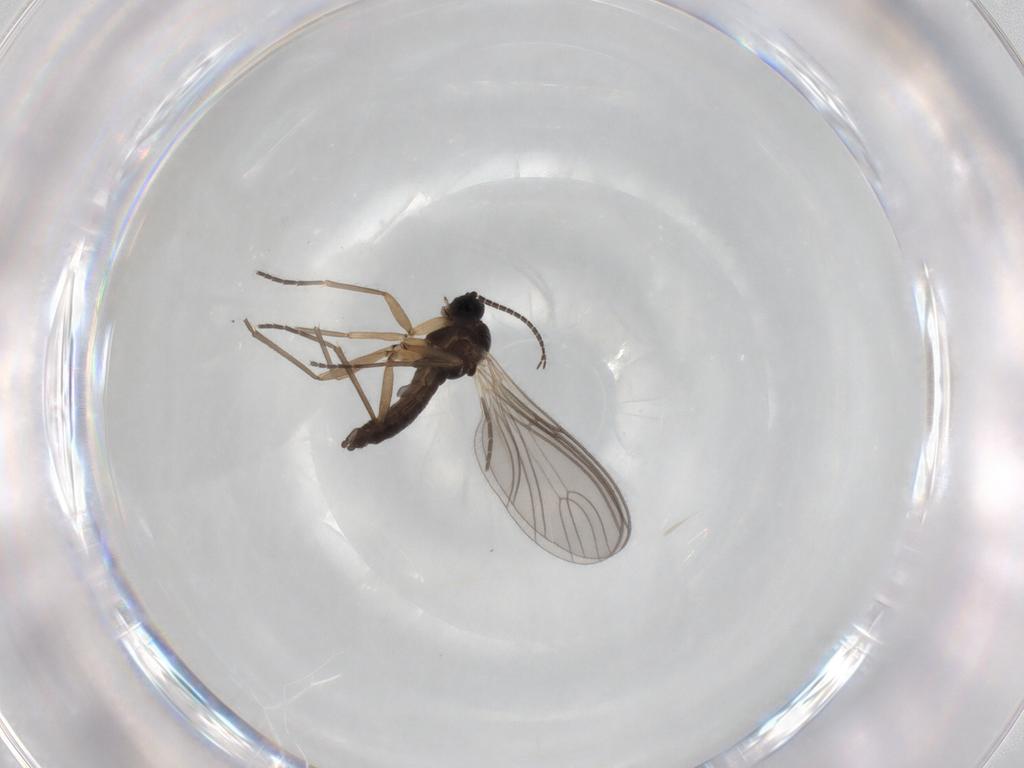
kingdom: Animalia
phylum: Arthropoda
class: Insecta
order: Diptera
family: Sciaridae
